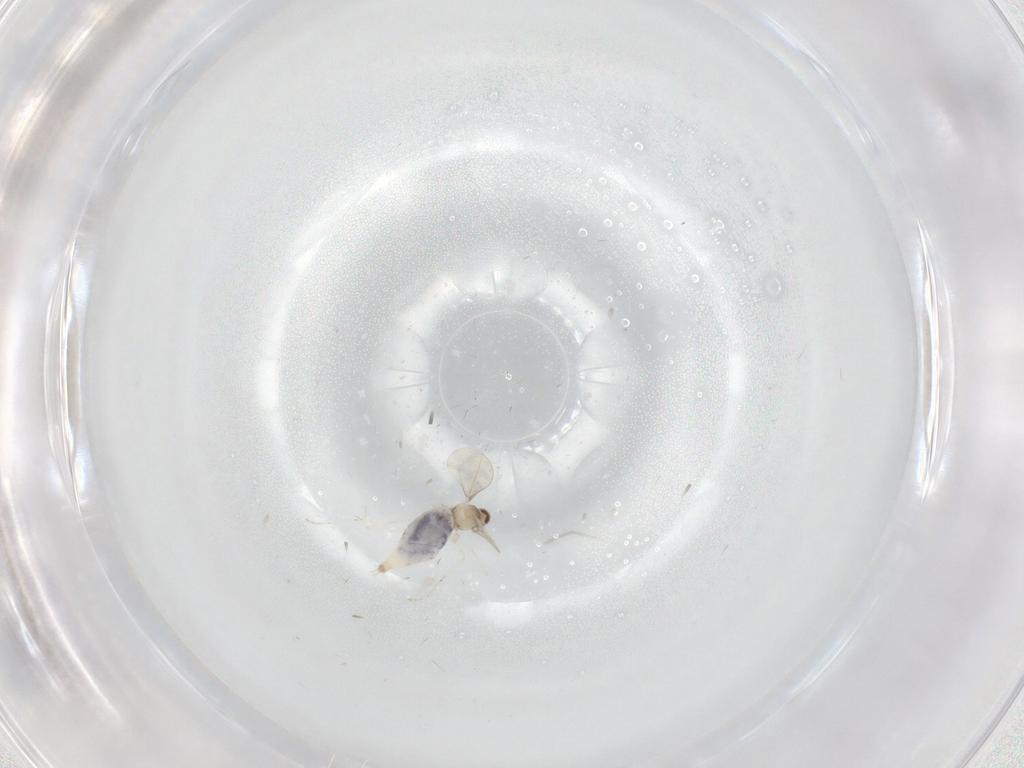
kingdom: Animalia
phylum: Arthropoda
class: Insecta
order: Diptera
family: Cecidomyiidae
